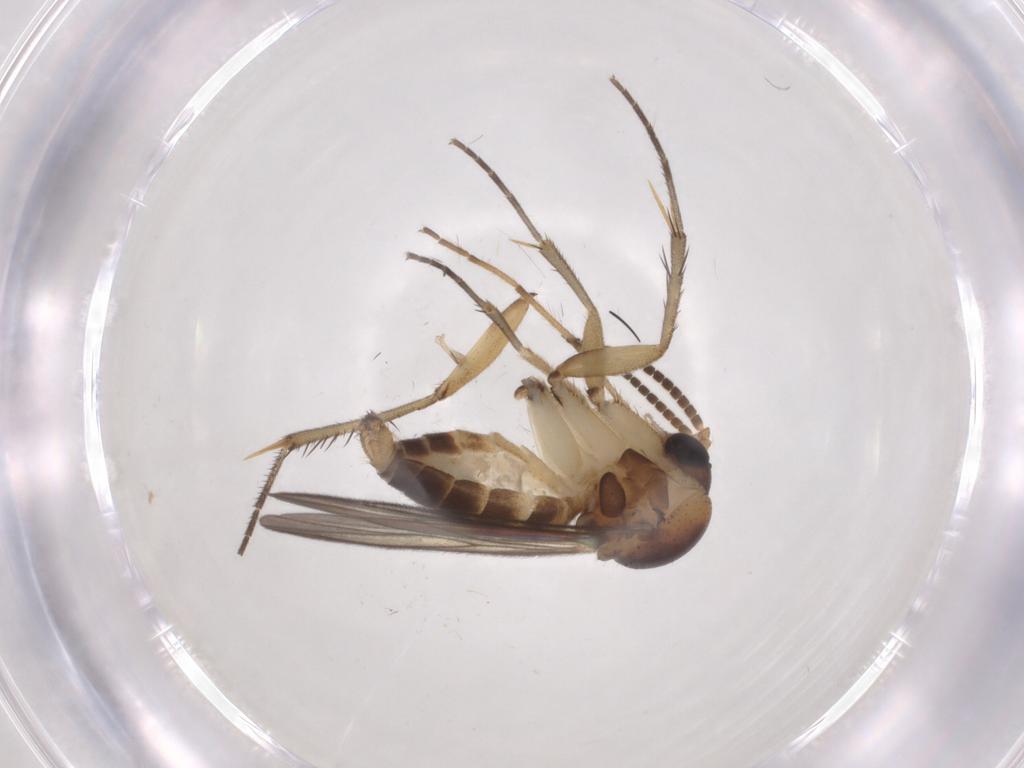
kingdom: Animalia
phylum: Arthropoda
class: Insecta
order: Diptera
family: Mycetophilidae
